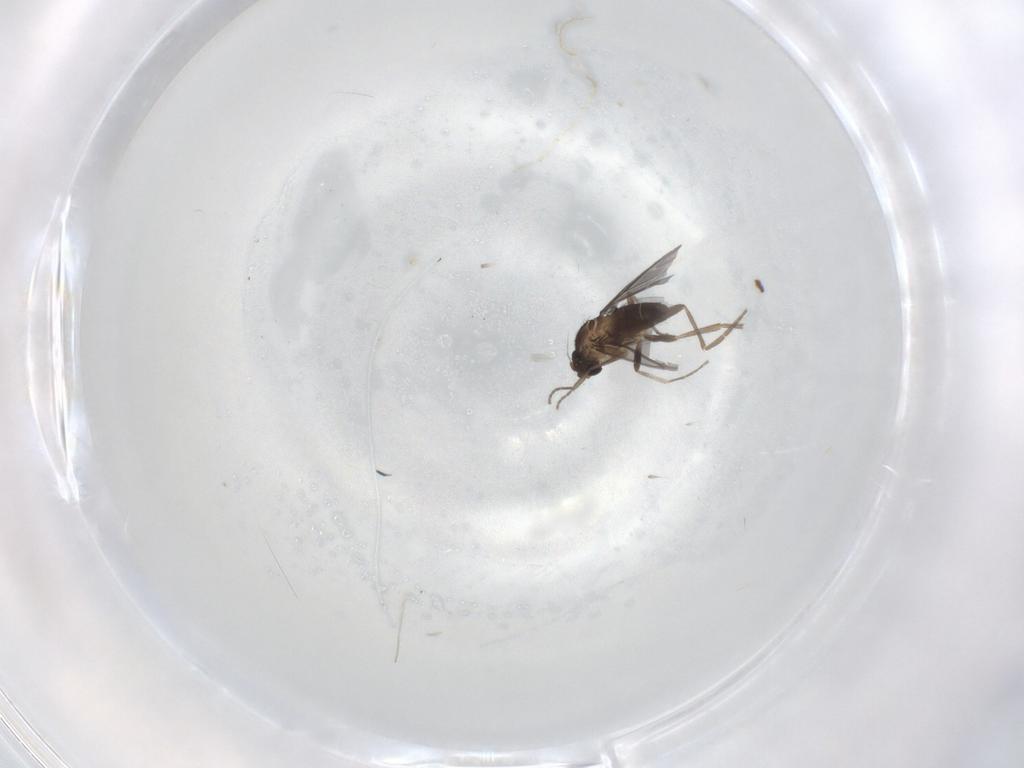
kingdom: Animalia
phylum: Arthropoda
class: Insecta
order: Diptera
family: Phoridae
